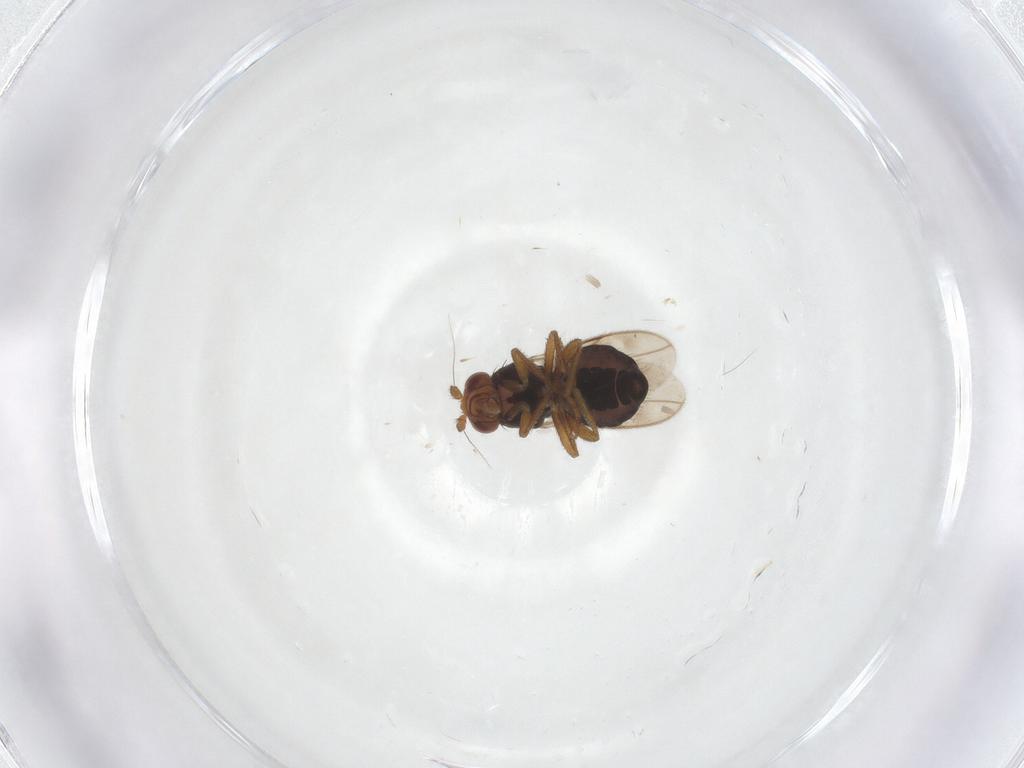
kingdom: Animalia
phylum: Arthropoda
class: Insecta
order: Diptera
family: Sphaeroceridae
